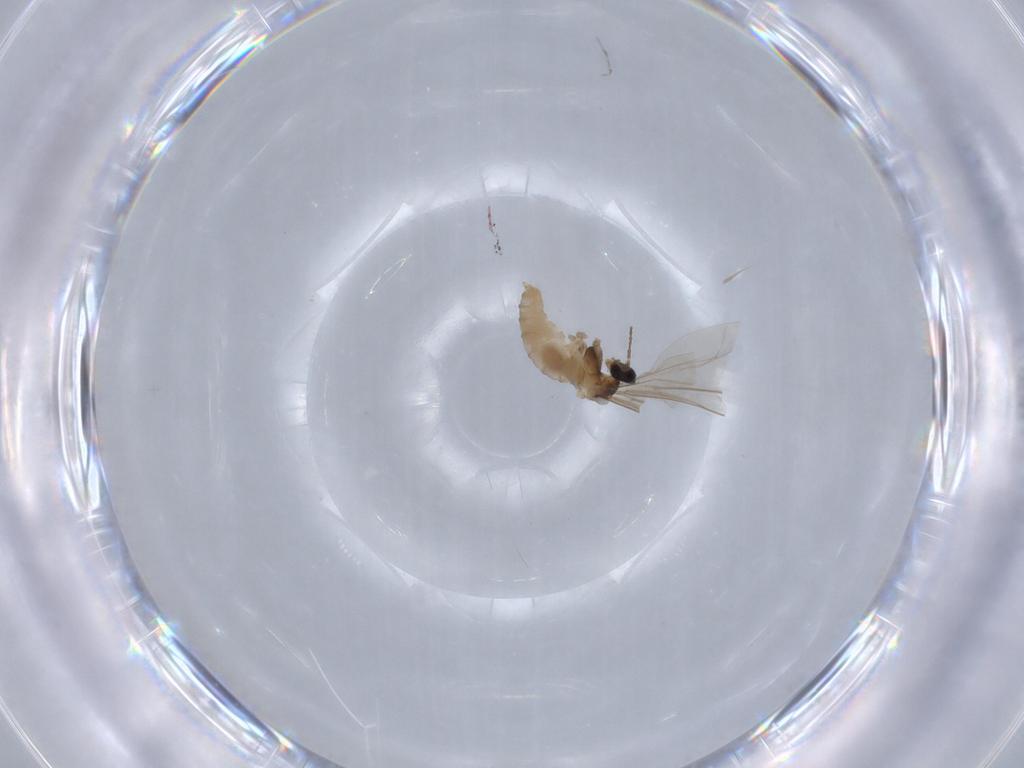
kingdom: Animalia
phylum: Arthropoda
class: Insecta
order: Diptera
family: Cecidomyiidae
